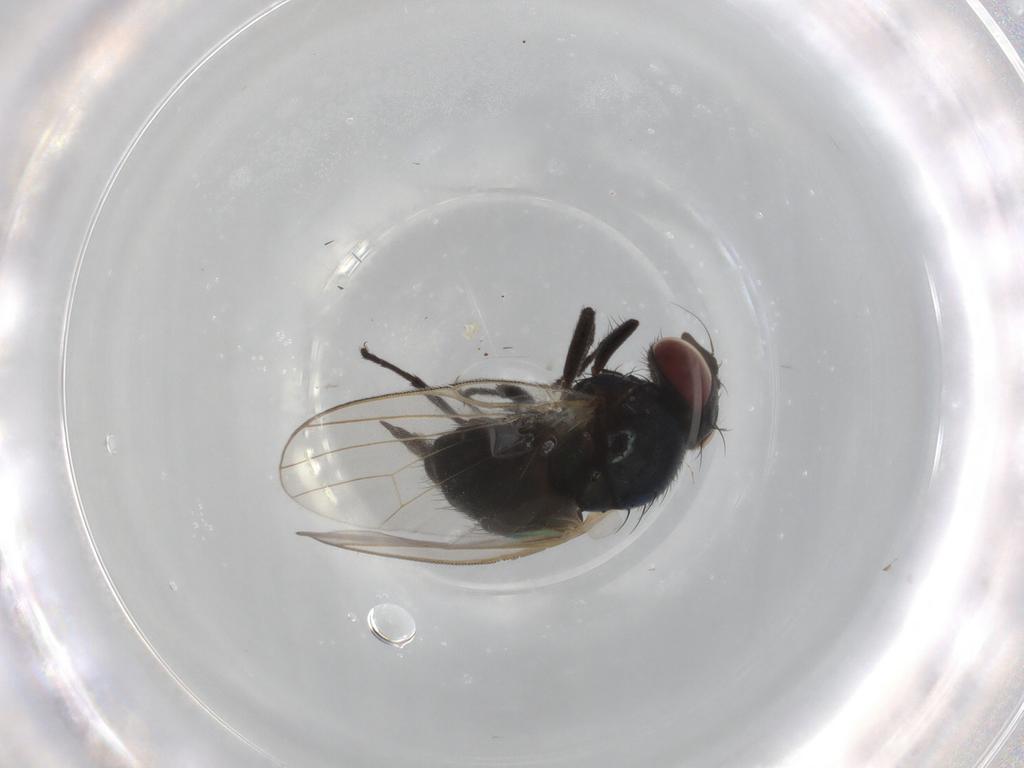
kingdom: Animalia
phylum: Arthropoda
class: Insecta
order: Diptera
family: Lonchaeidae
